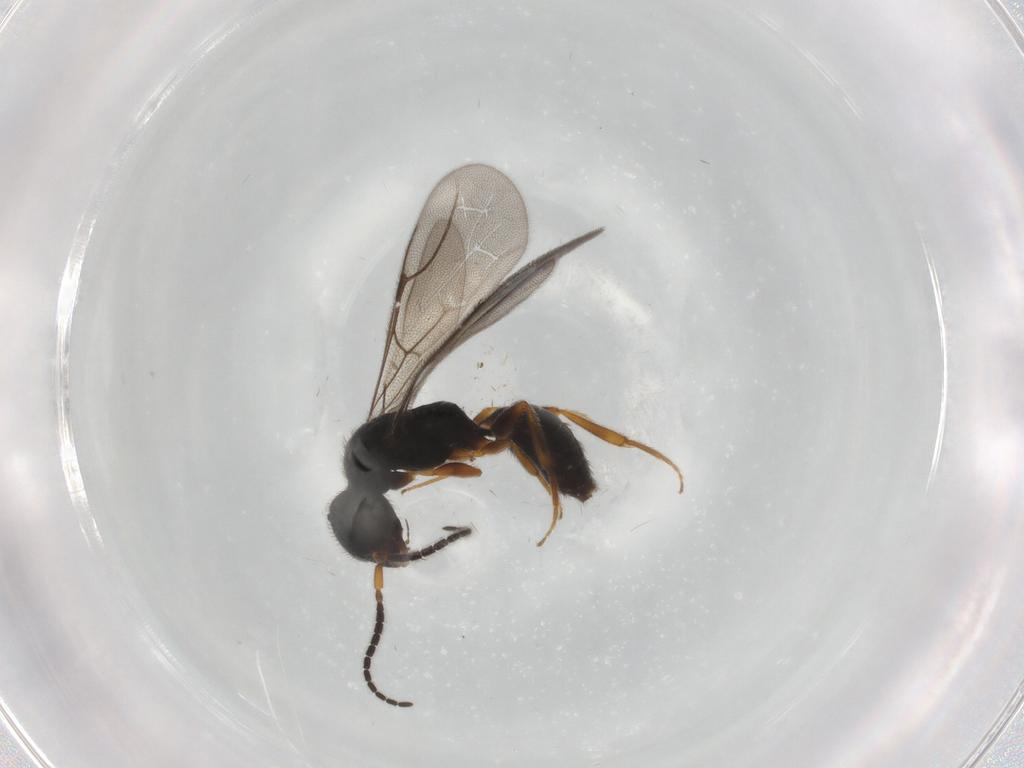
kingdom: Animalia
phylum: Arthropoda
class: Insecta
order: Hymenoptera
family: Bethylidae
